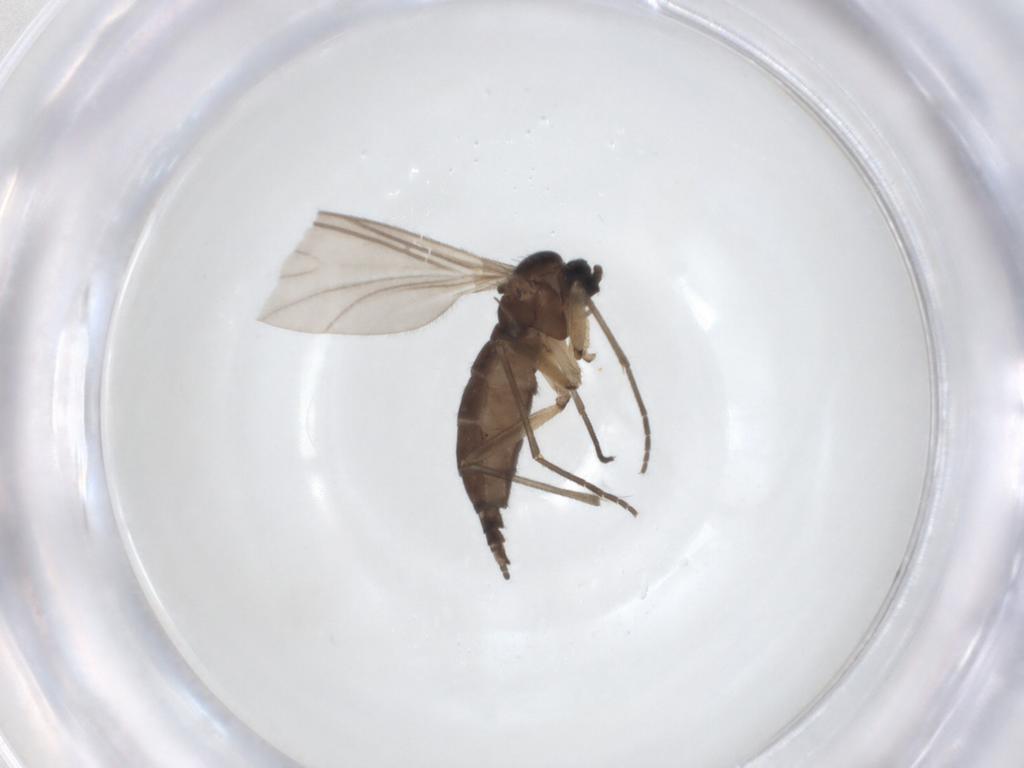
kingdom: Animalia
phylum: Arthropoda
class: Insecta
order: Diptera
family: Sciaridae
